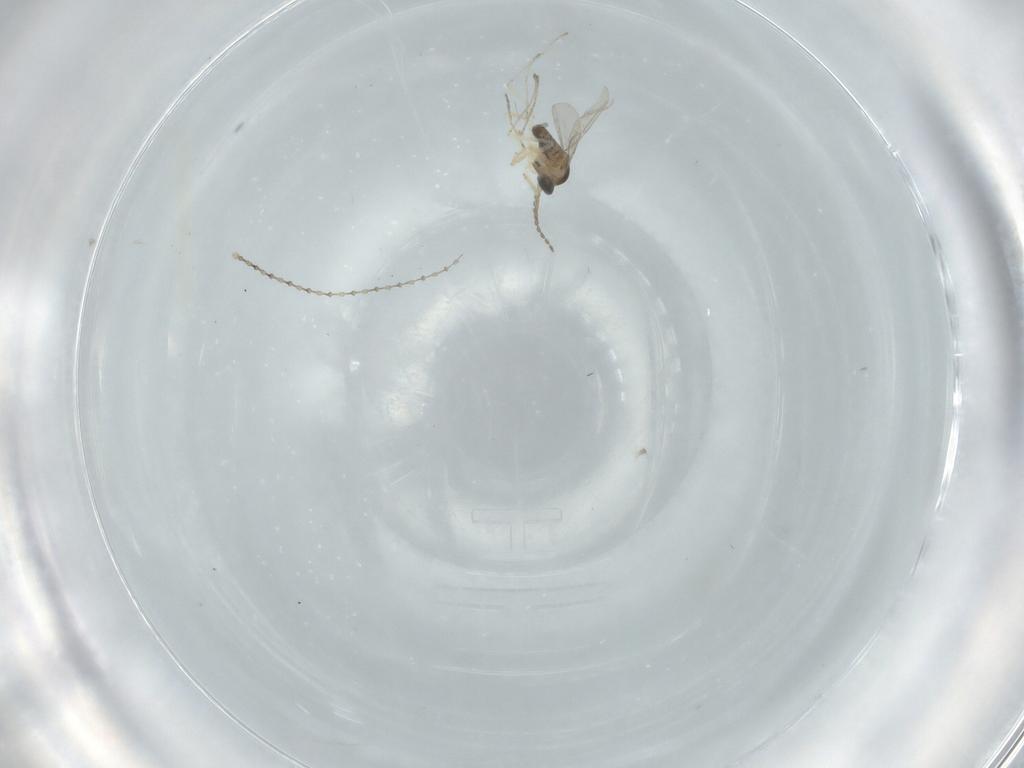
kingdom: Animalia
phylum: Arthropoda
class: Insecta
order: Diptera
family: Cecidomyiidae
